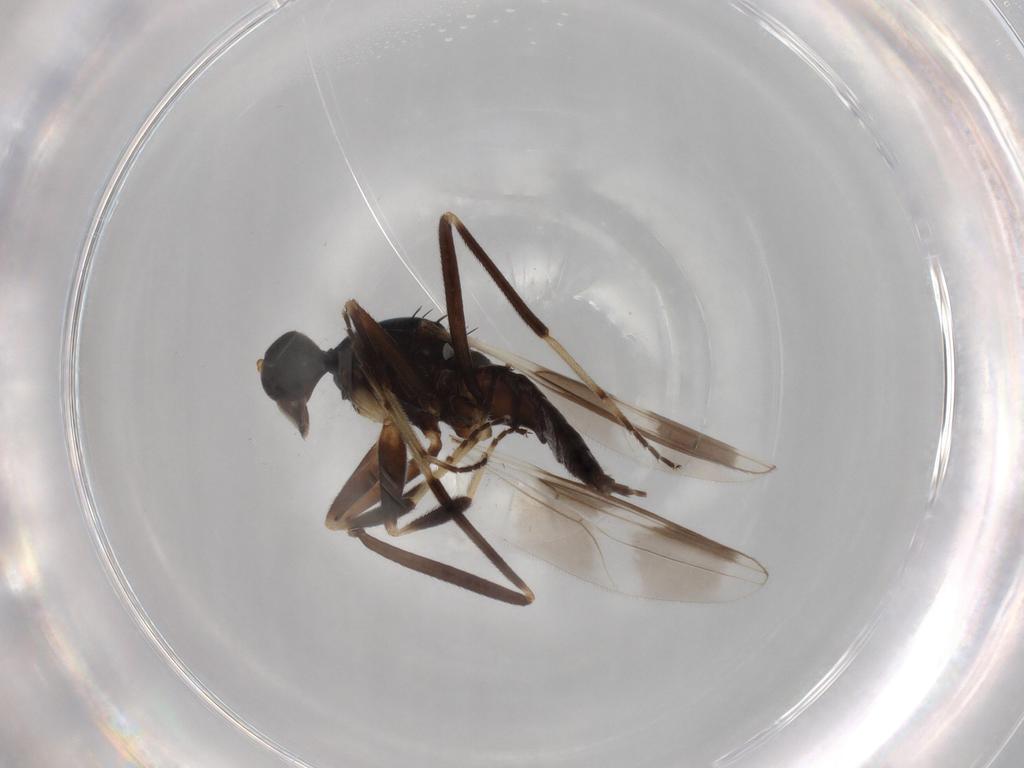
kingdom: Animalia
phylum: Arthropoda
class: Insecta
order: Diptera
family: Hybotidae
